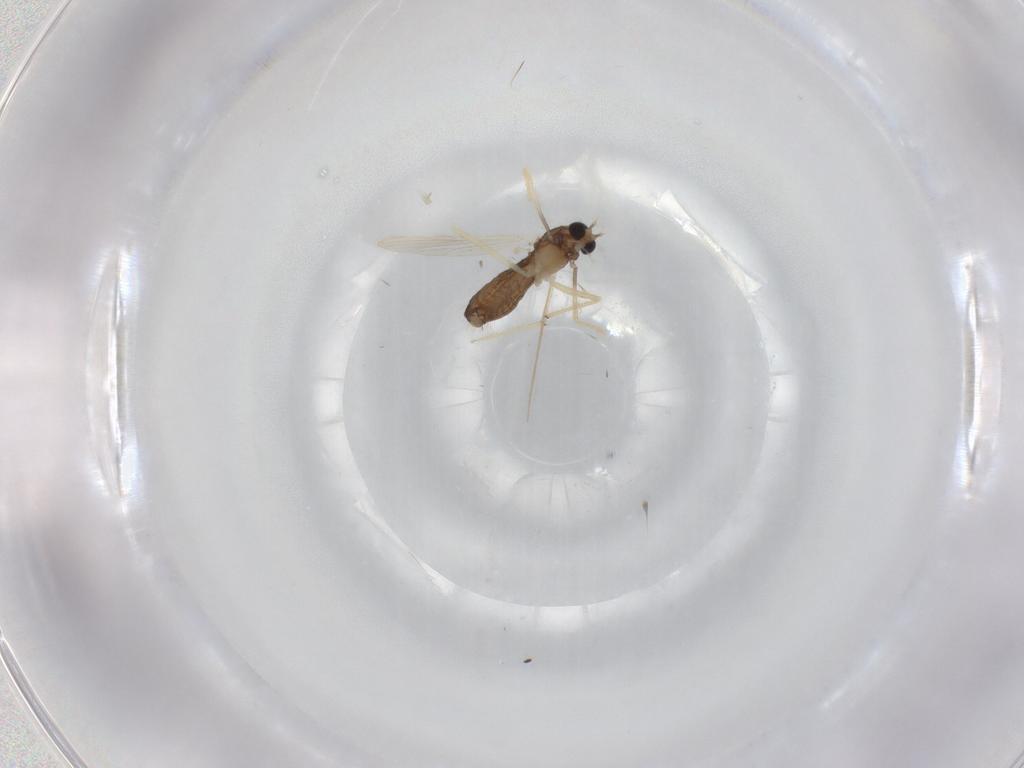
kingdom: Animalia
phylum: Arthropoda
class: Insecta
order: Diptera
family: Chironomidae
